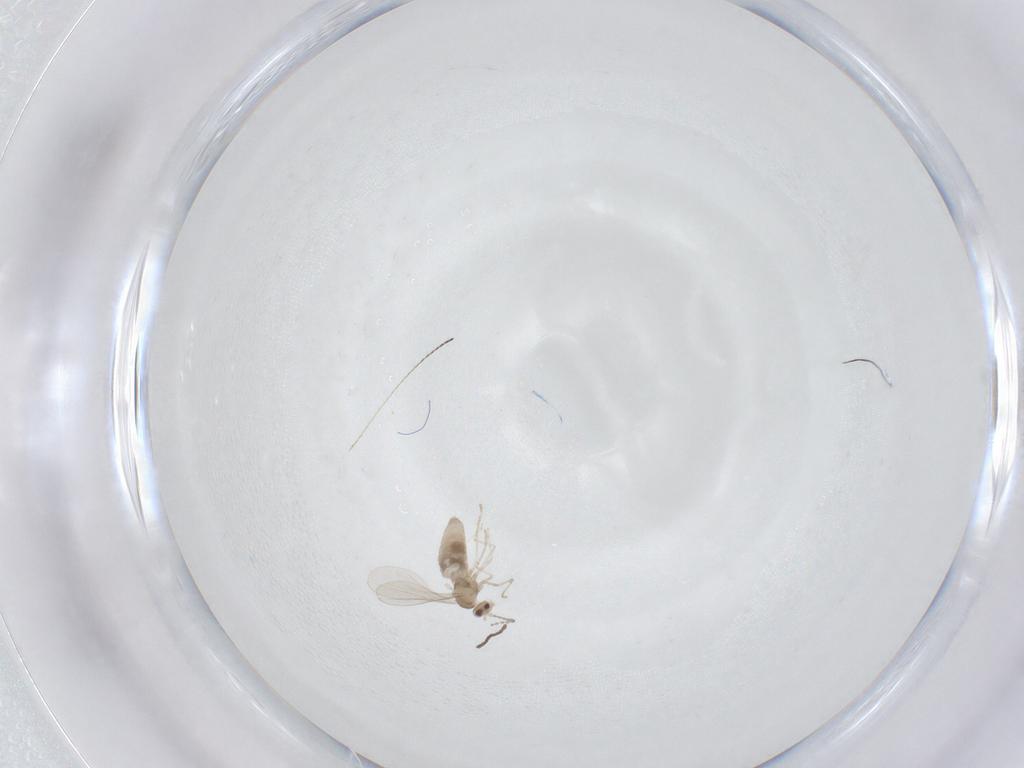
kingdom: Animalia
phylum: Arthropoda
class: Insecta
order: Diptera
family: Cecidomyiidae
